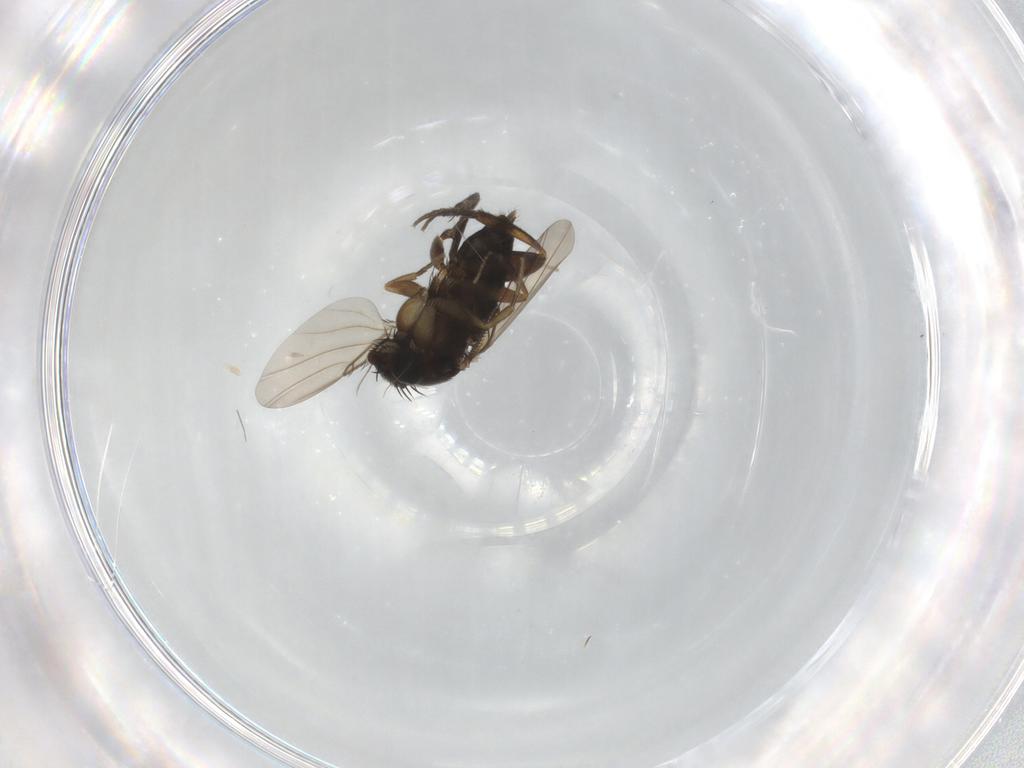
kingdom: Animalia
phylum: Arthropoda
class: Insecta
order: Diptera
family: Phoridae
